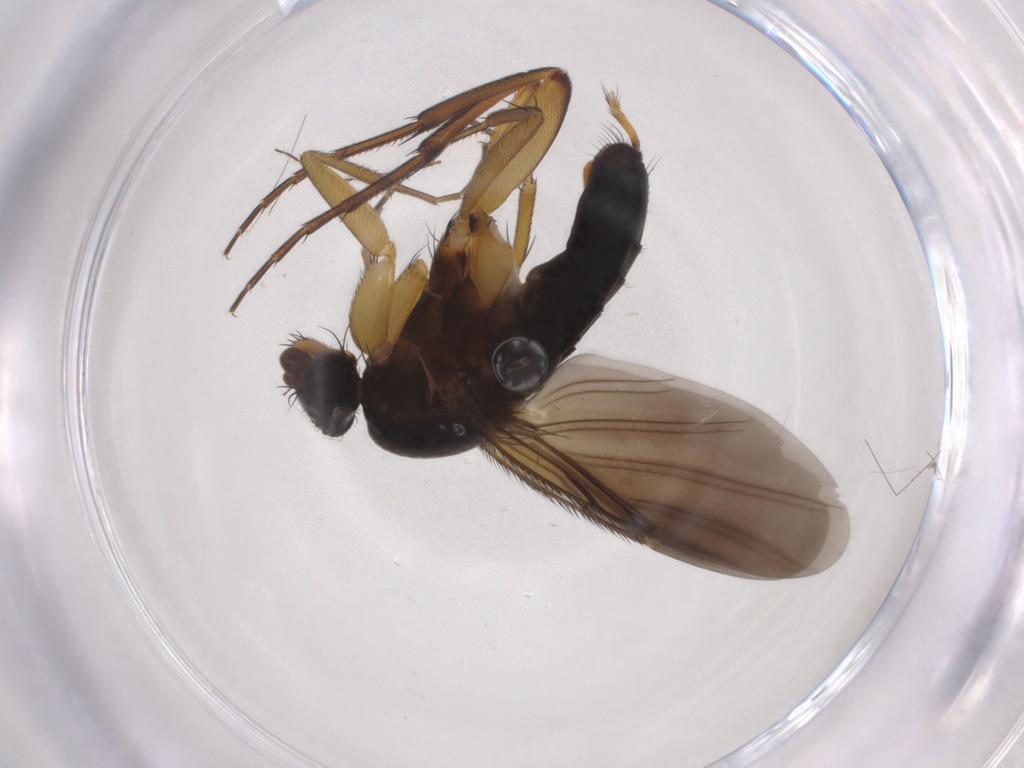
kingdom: Animalia
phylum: Arthropoda
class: Insecta
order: Diptera
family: Phoridae
